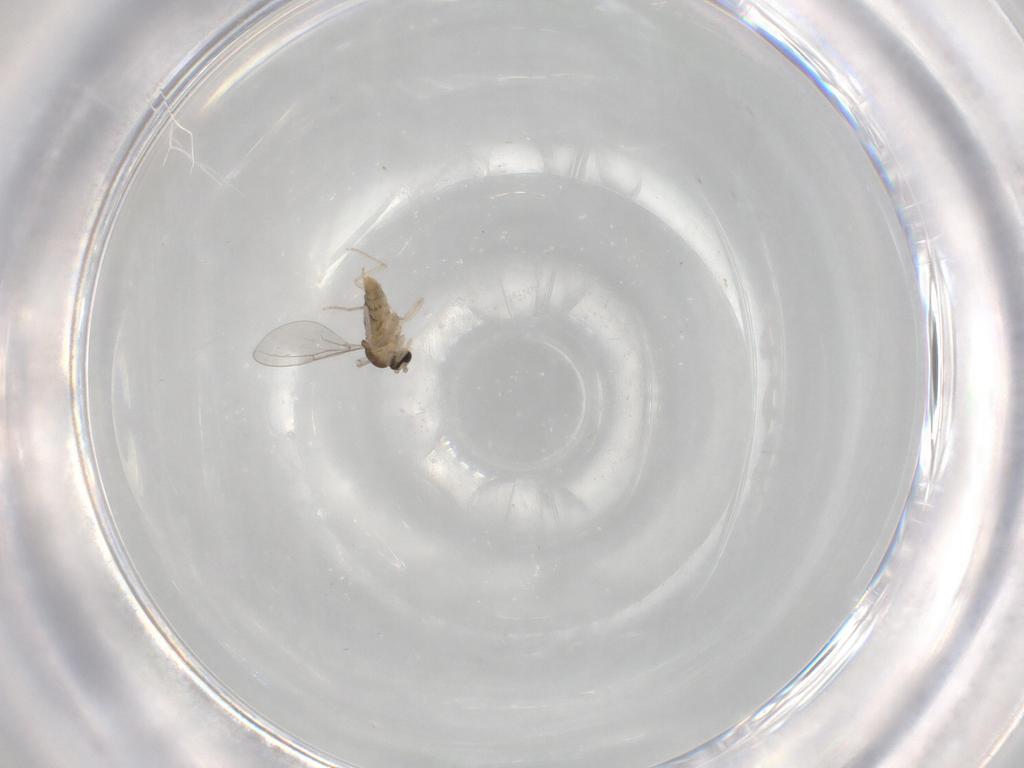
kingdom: Animalia
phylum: Arthropoda
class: Insecta
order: Diptera
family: Cecidomyiidae
